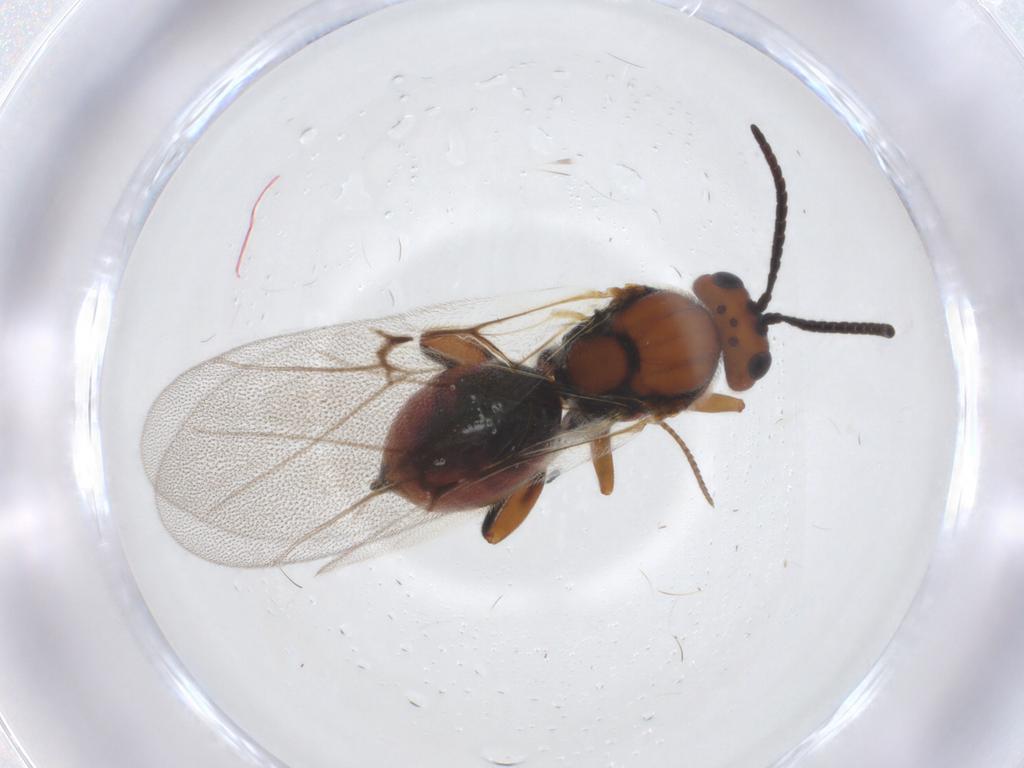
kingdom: Animalia
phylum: Arthropoda
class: Insecta
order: Hymenoptera
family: Cynipidae
